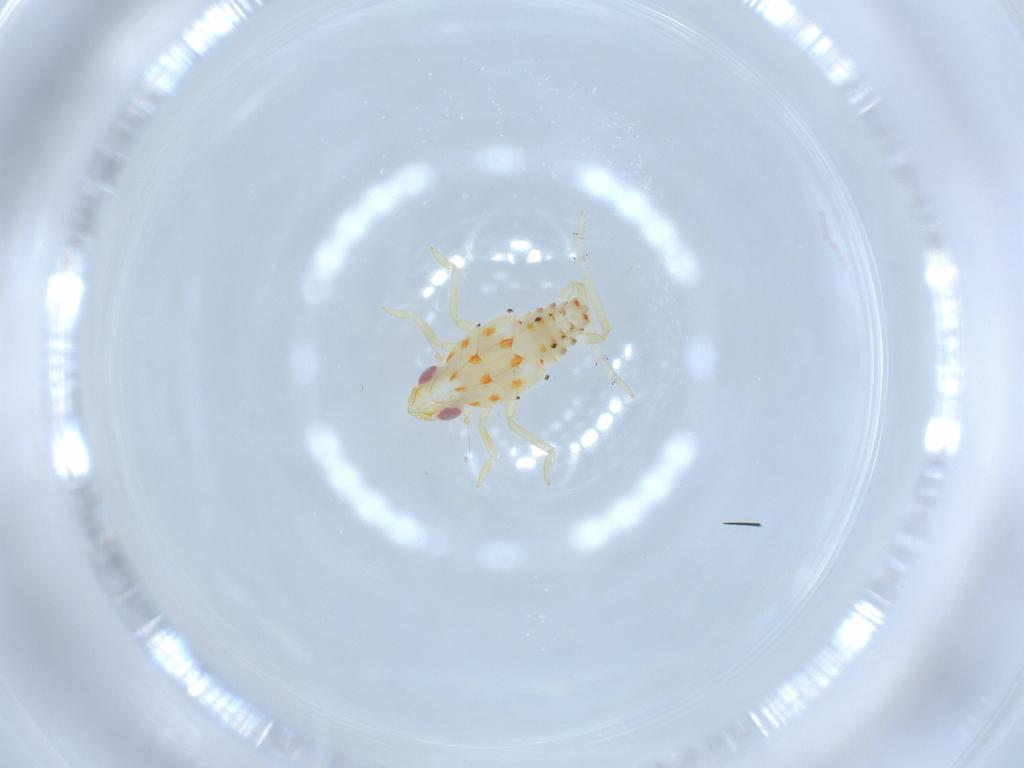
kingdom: Animalia
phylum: Arthropoda
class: Insecta
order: Hemiptera
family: Tropiduchidae
